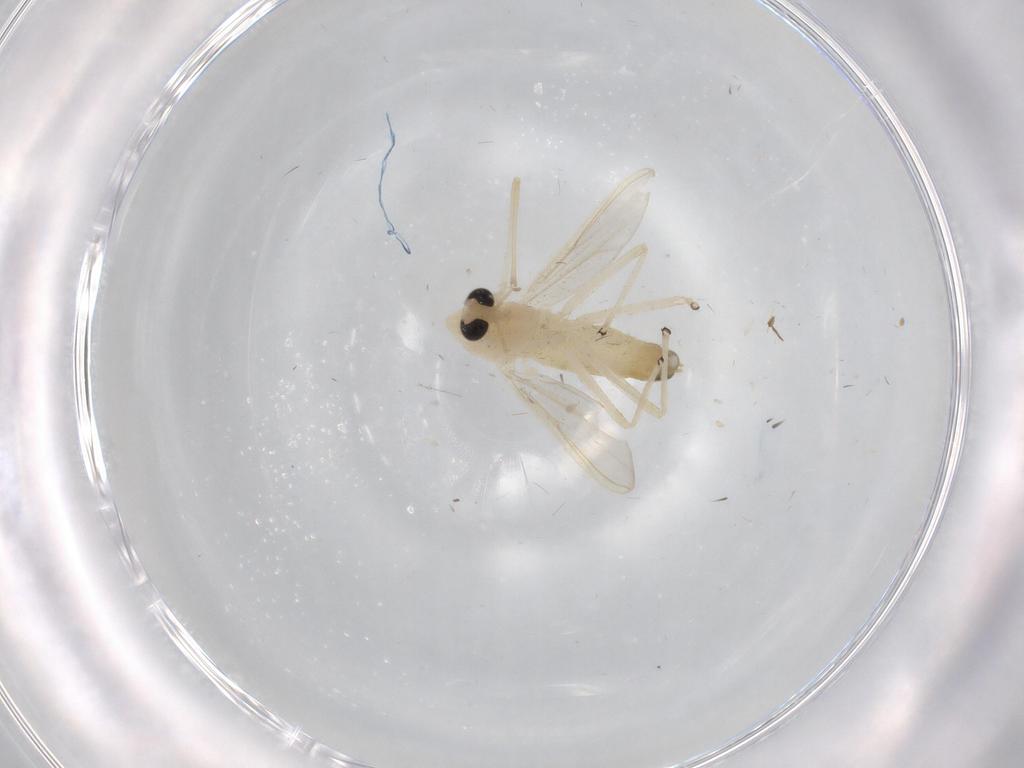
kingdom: Animalia
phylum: Arthropoda
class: Insecta
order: Diptera
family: Chironomidae
